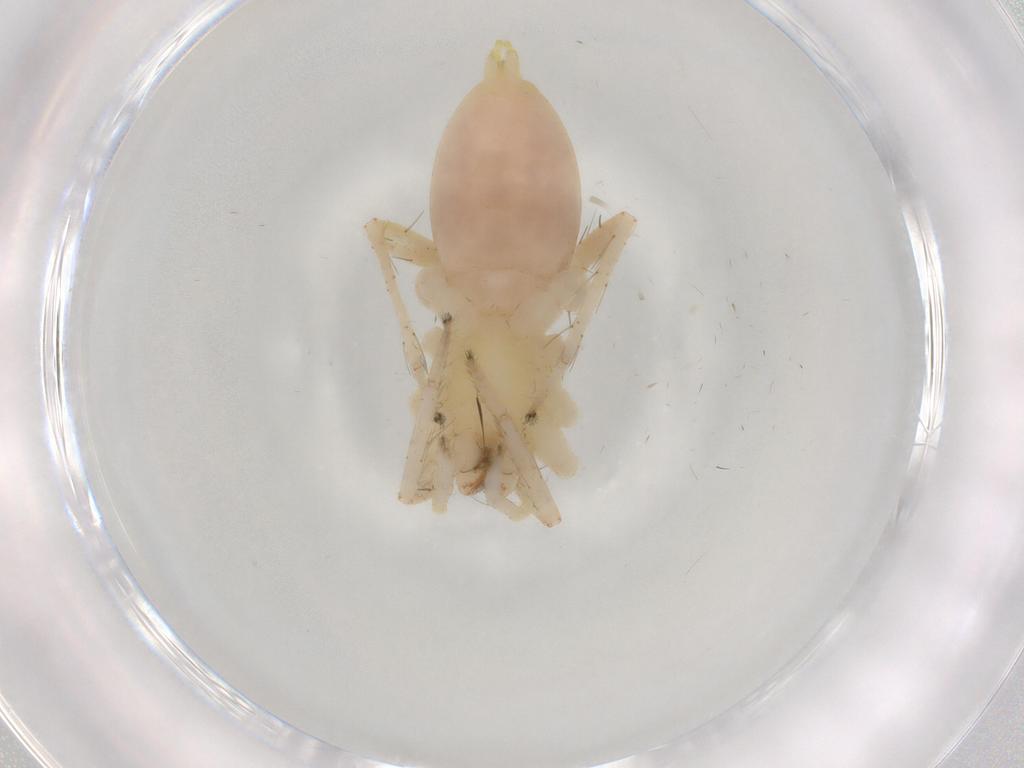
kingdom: Animalia
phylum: Arthropoda
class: Arachnida
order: Araneae
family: Anyphaenidae
